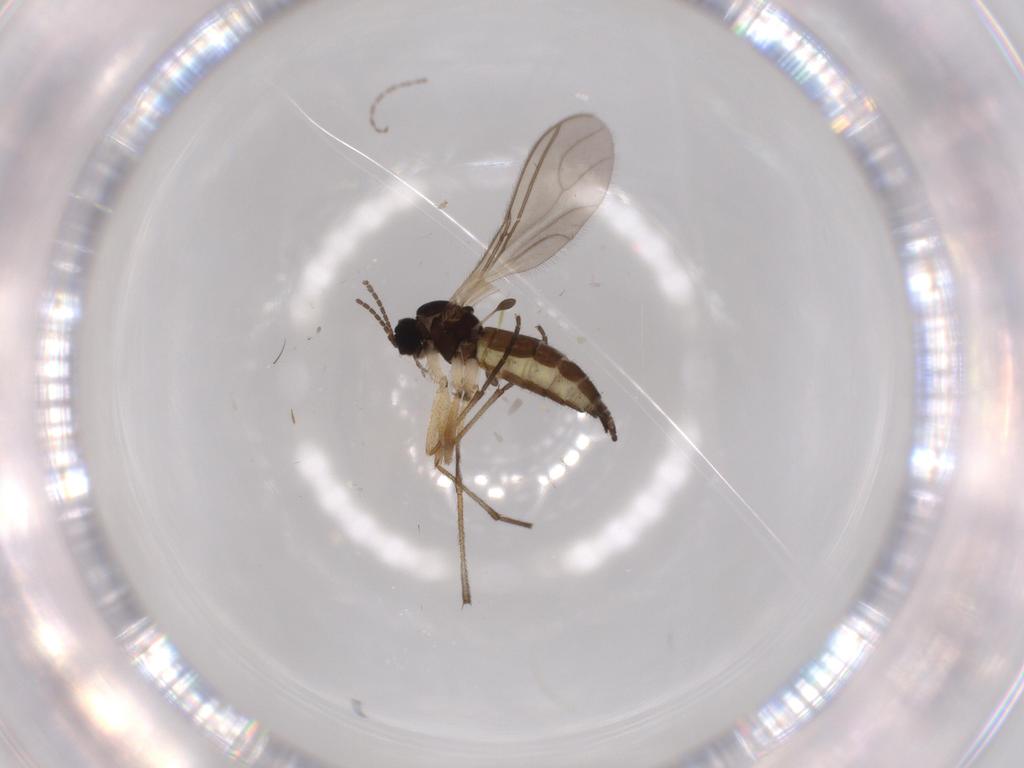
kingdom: Animalia
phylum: Arthropoda
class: Insecta
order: Diptera
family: Sciaridae
